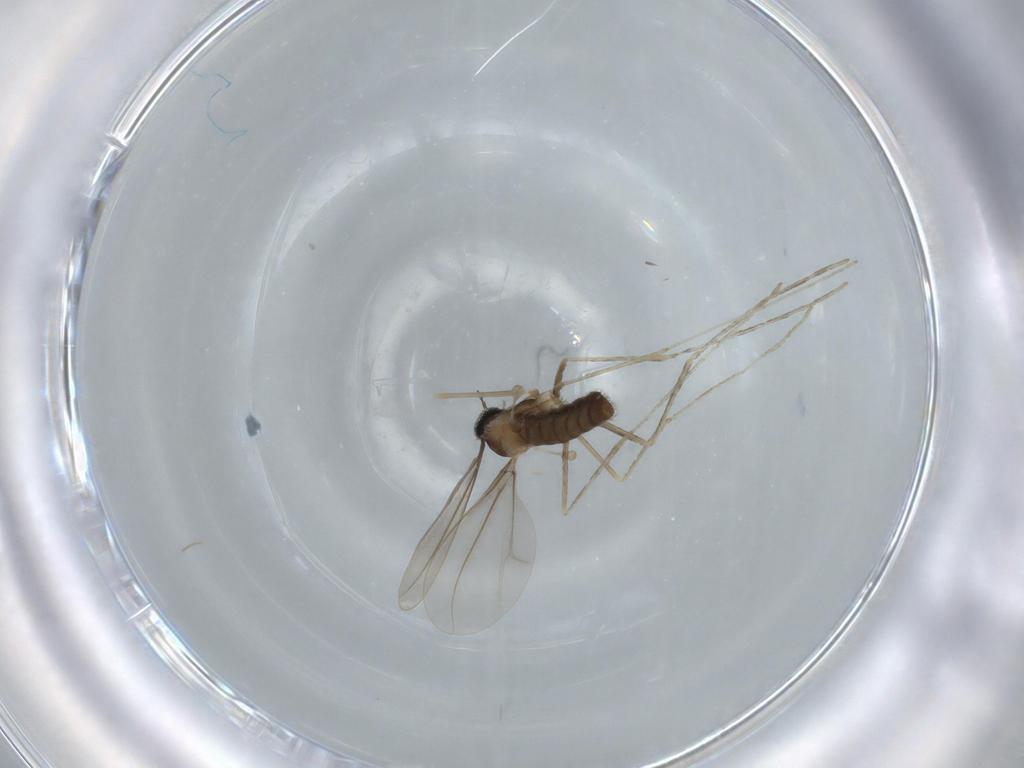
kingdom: Animalia
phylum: Arthropoda
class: Insecta
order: Diptera
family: Cecidomyiidae
